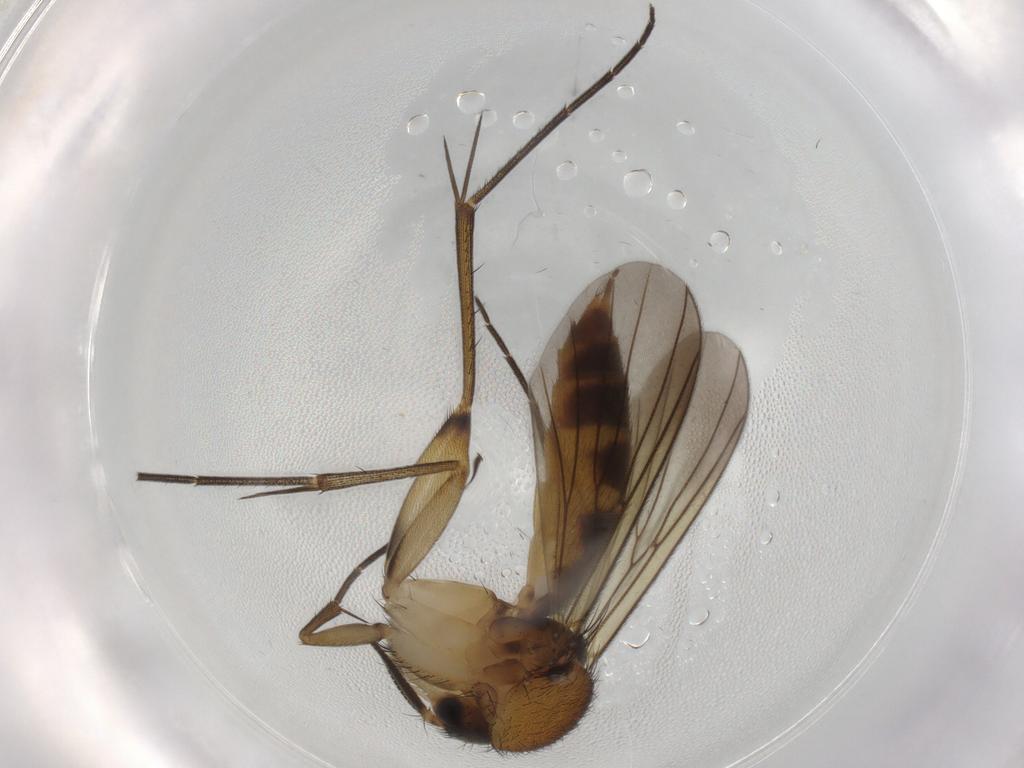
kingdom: Animalia
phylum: Arthropoda
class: Insecta
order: Diptera
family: Mycetophilidae
